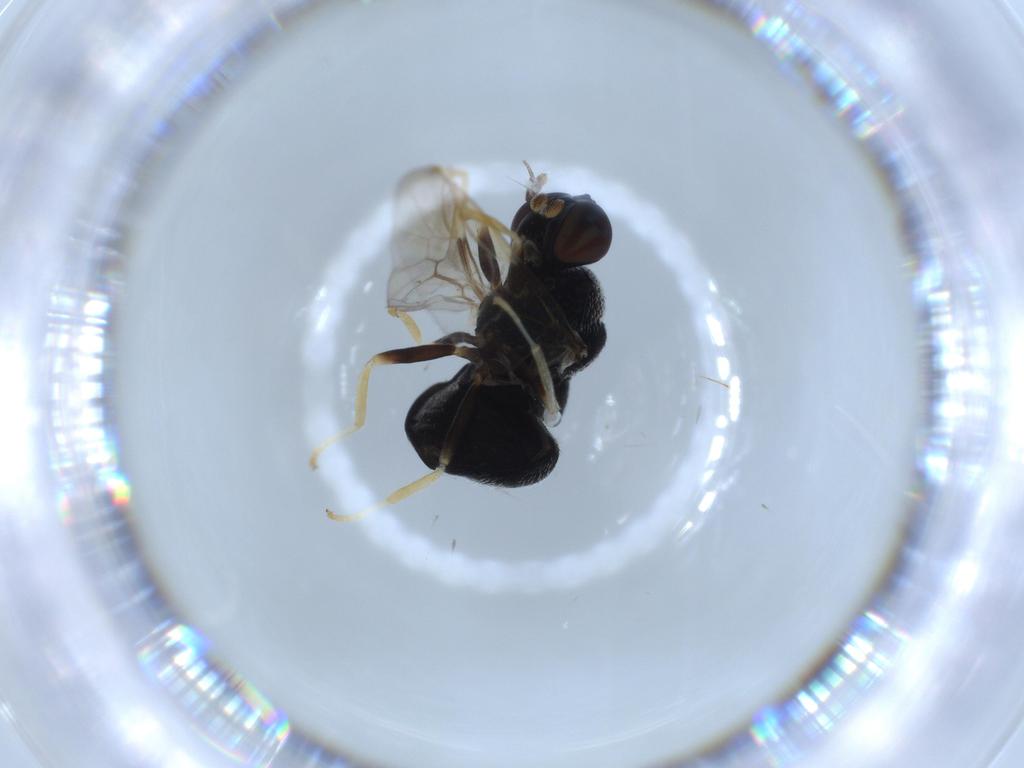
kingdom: Animalia
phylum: Arthropoda
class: Insecta
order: Diptera
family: Stratiomyidae
